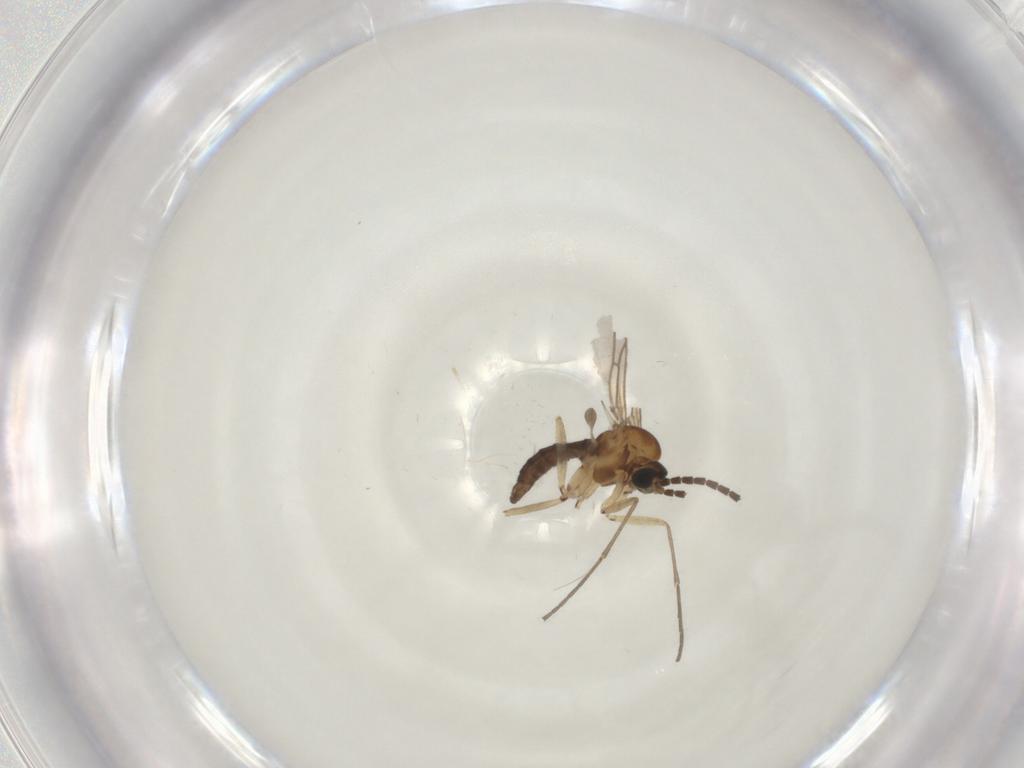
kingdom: Animalia
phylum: Arthropoda
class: Insecta
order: Diptera
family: Sciaridae
